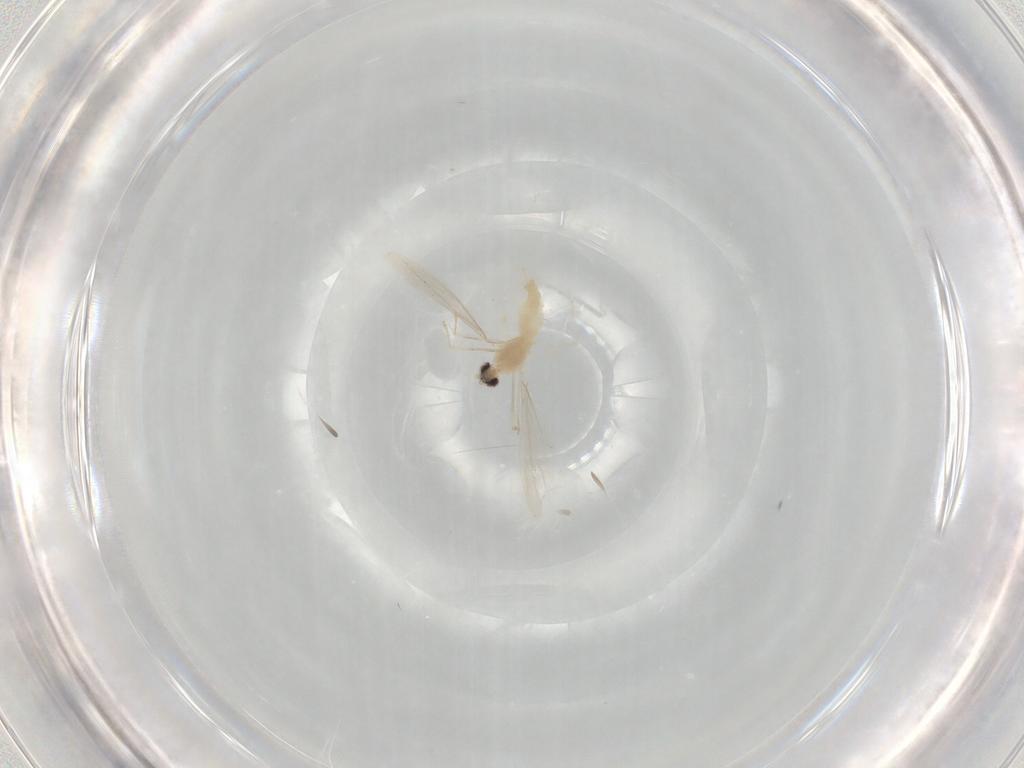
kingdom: Animalia
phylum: Arthropoda
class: Insecta
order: Diptera
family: Cecidomyiidae
